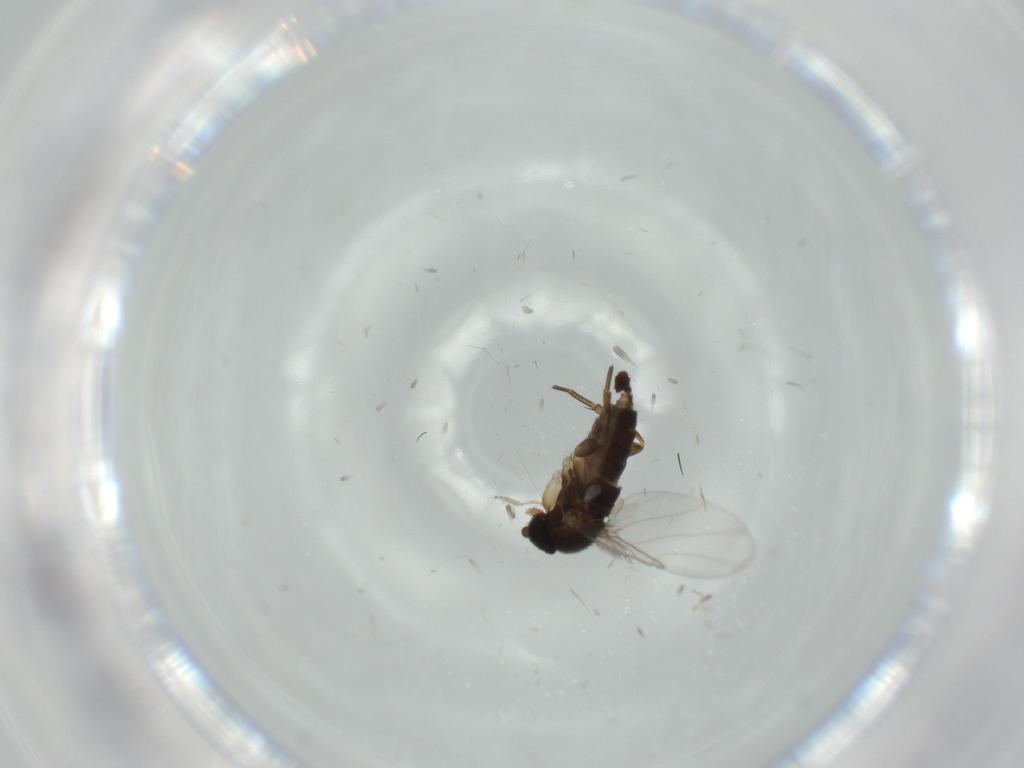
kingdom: Animalia
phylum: Arthropoda
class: Insecta
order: Diptera
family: Phoridae
